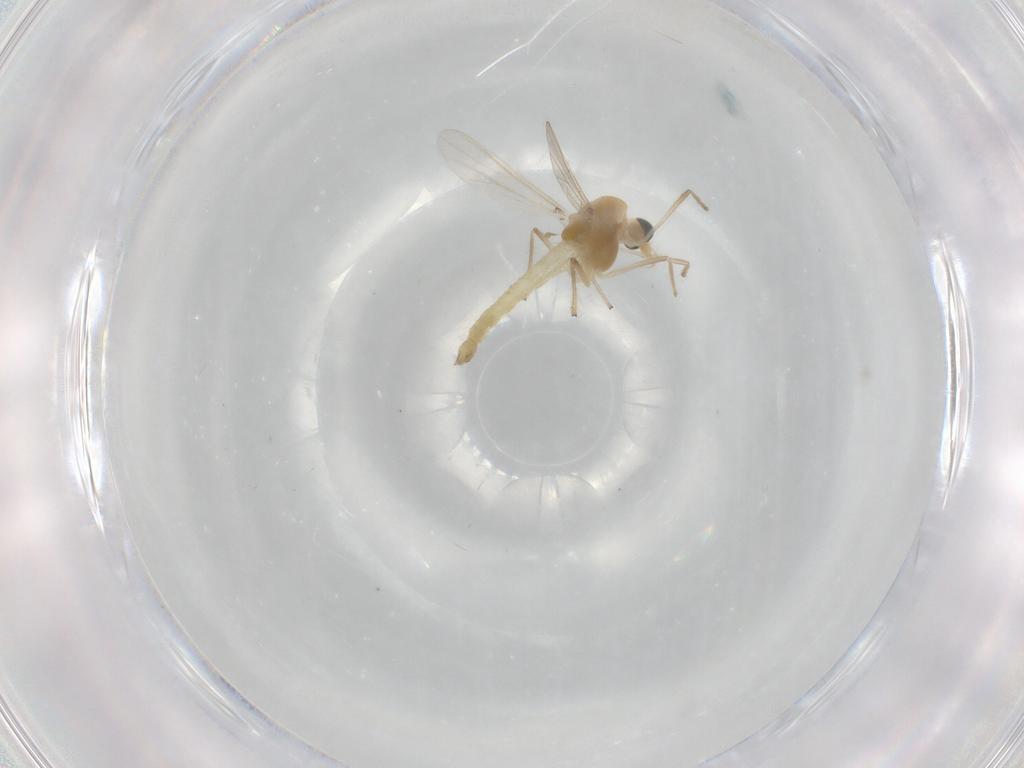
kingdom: Animalia
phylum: Arthropoda
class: Insecta
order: Diptera
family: Chironomidae
